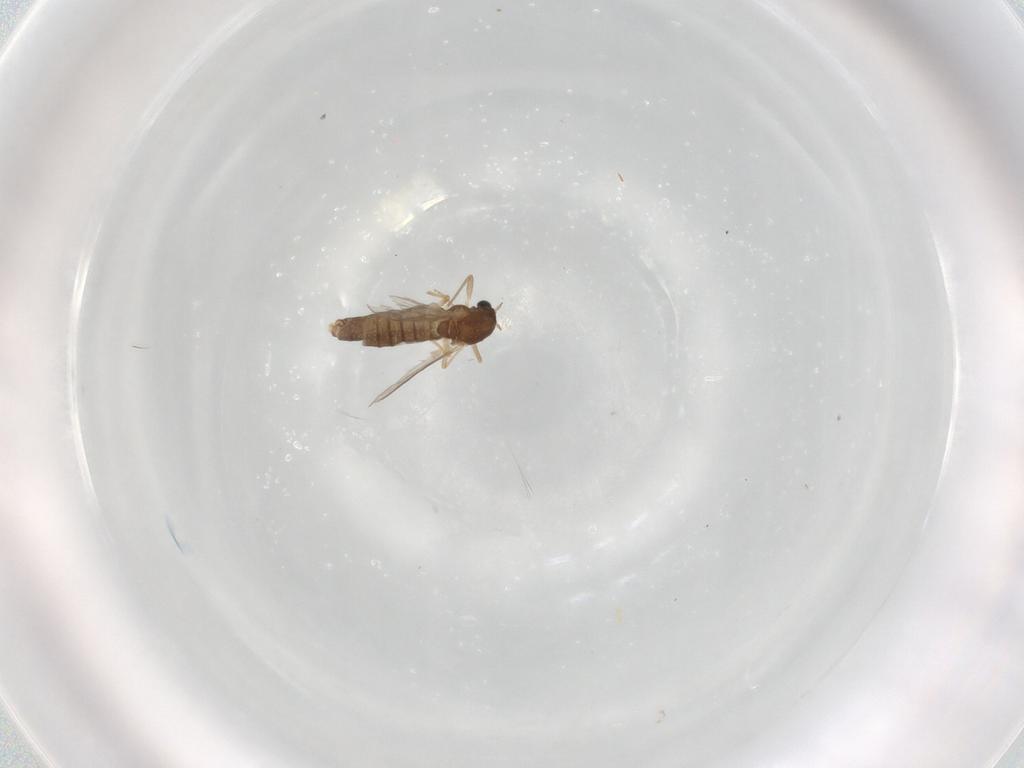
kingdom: Animalia
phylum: Arthropoda
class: Insecta
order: Diptera
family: Chironomidae
